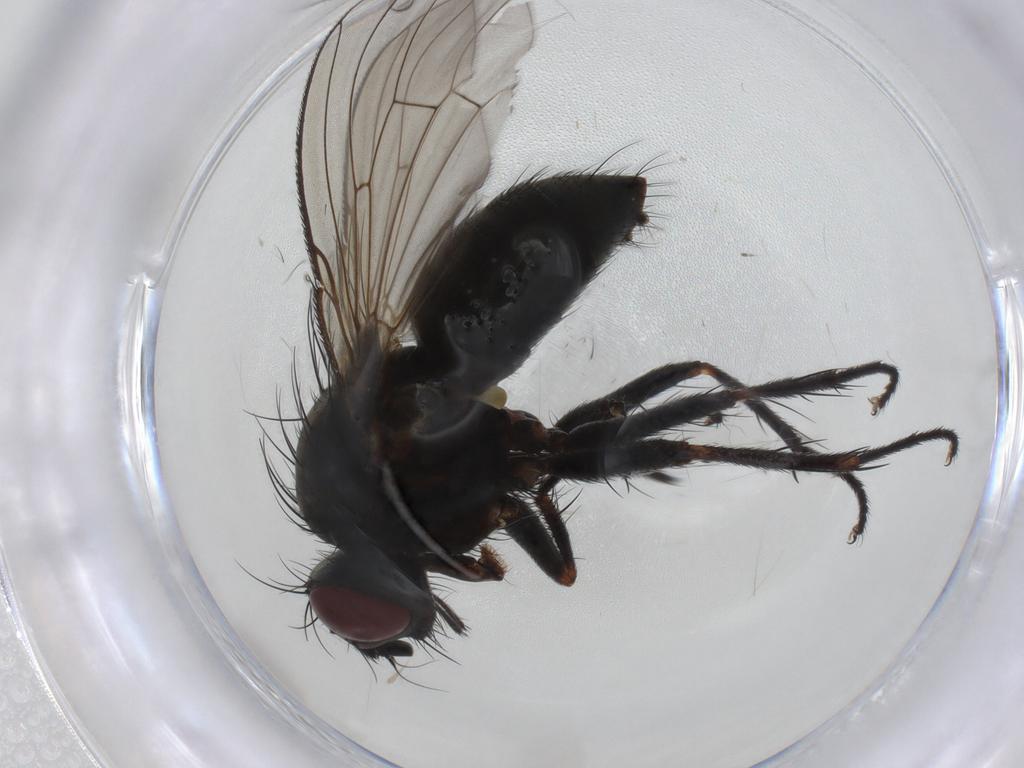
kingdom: Animalia
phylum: Arthropoda
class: Insecta
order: Diptera
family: Muscidae
